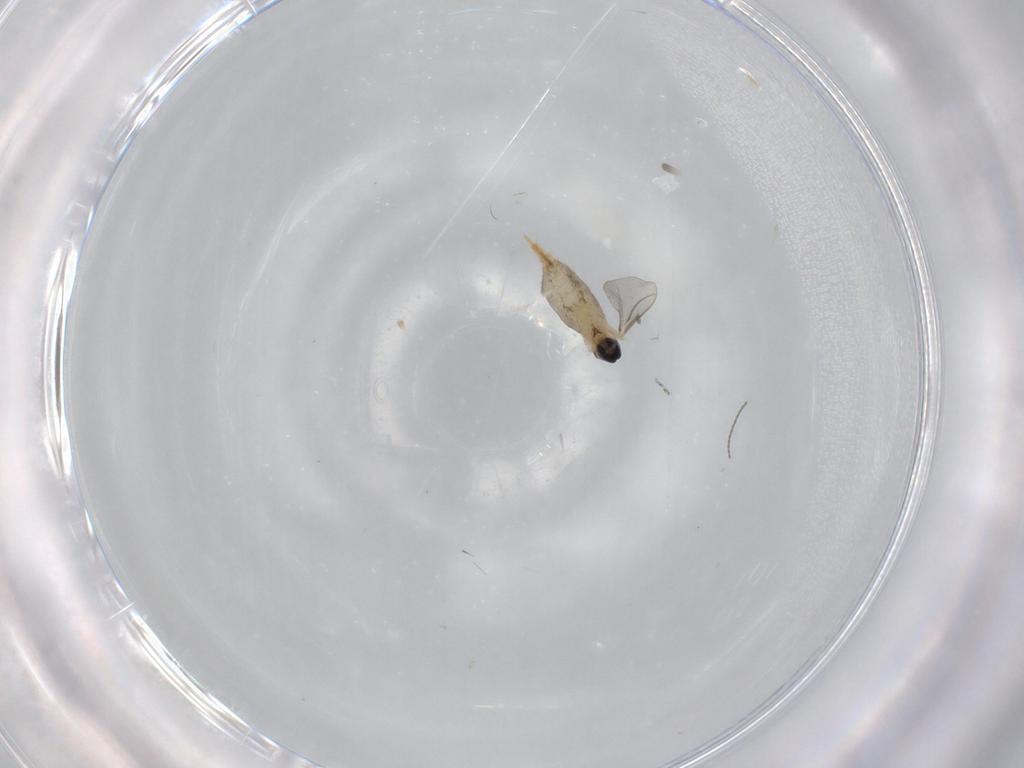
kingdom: Animalia
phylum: Arthropoda
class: Insecta
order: Diptera
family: Cecidomyiidae
